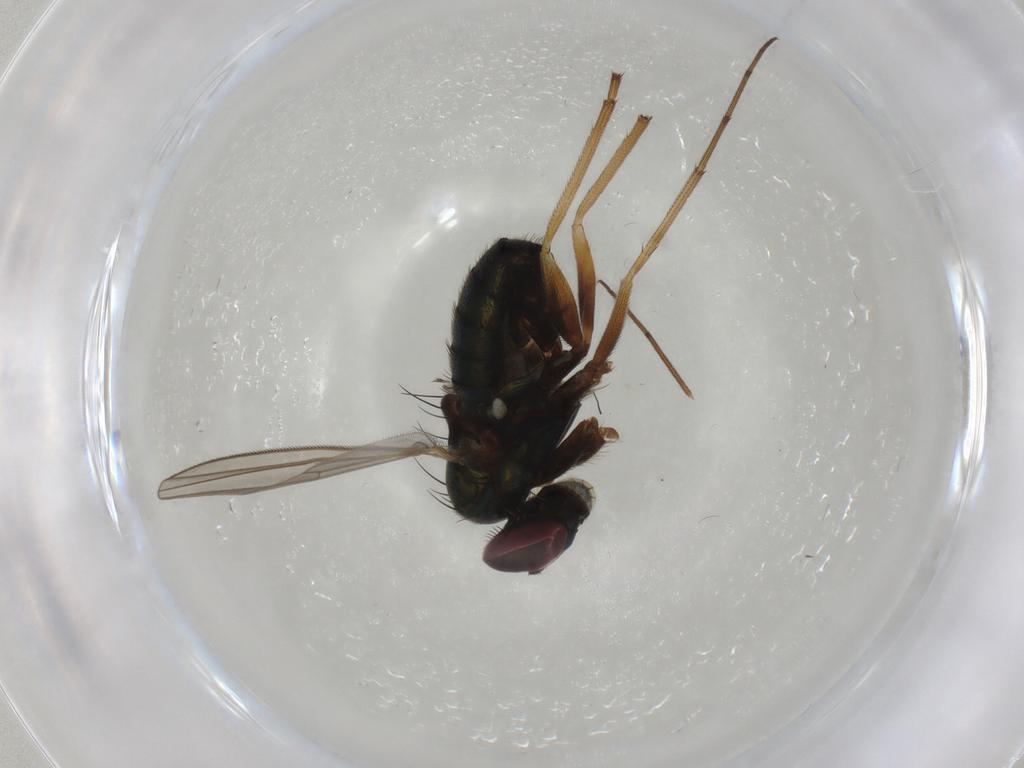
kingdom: Animalia
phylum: Arthropoda
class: Insecta
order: Diptera
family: Dolichopodidae
